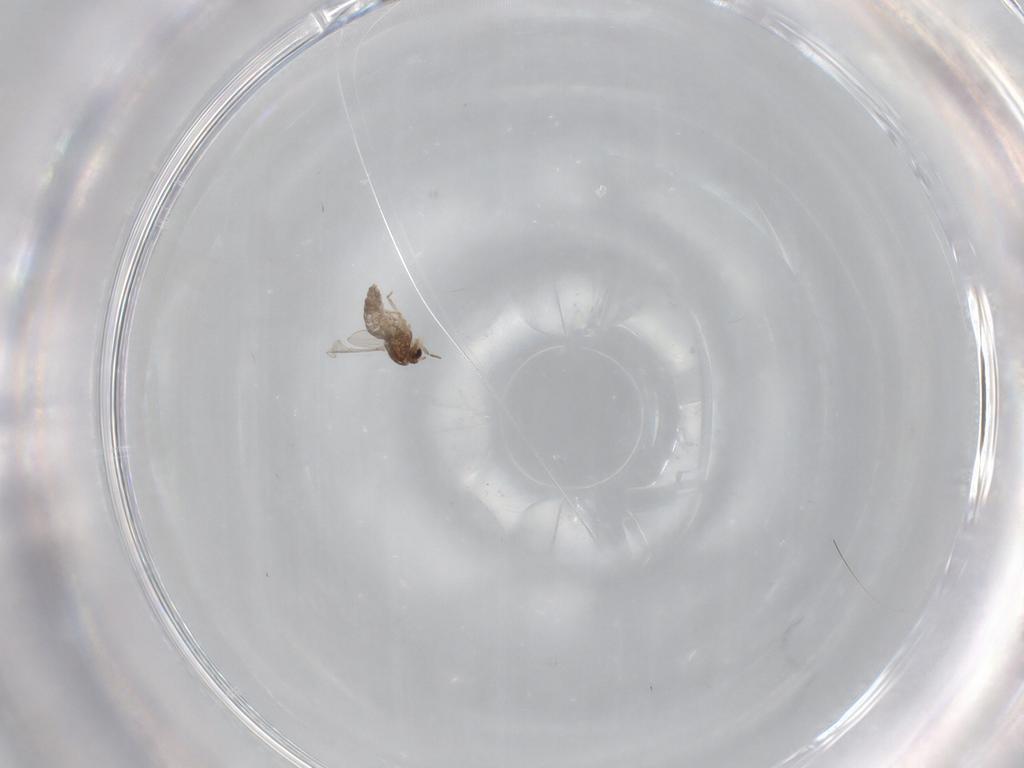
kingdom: Animalia
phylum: Arthropoda
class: Insecta
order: Diptera
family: Chironomidae
